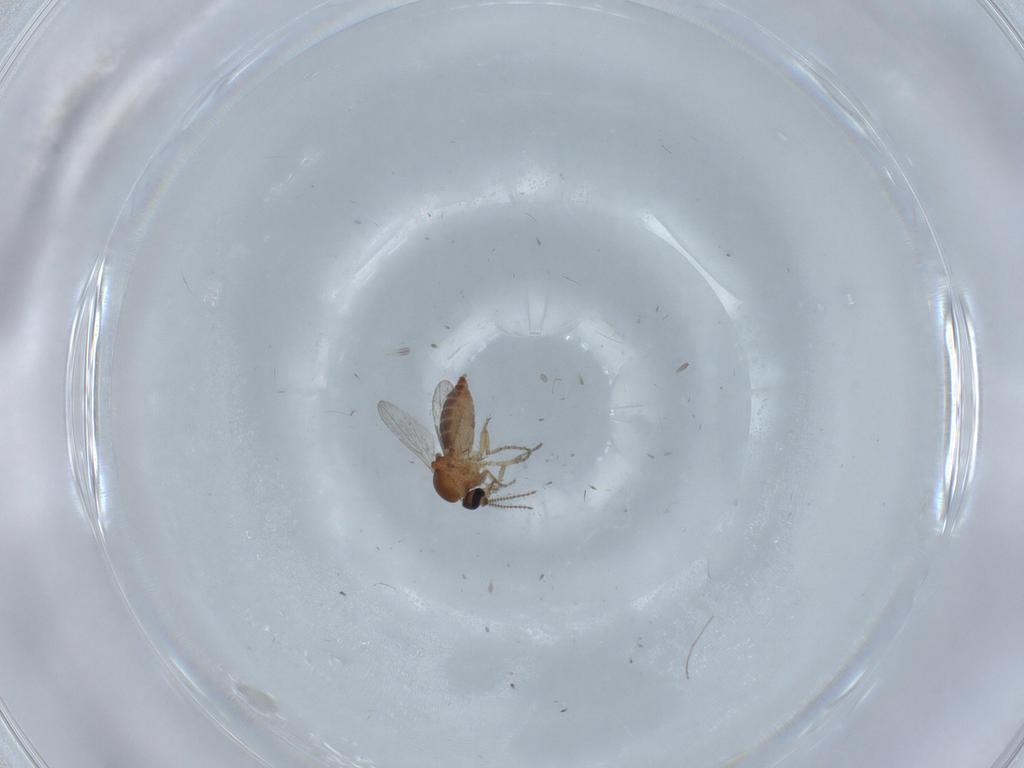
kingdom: Animalia
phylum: Arthropoda
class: Insecta
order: Diptera
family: Ceratopogonidae
